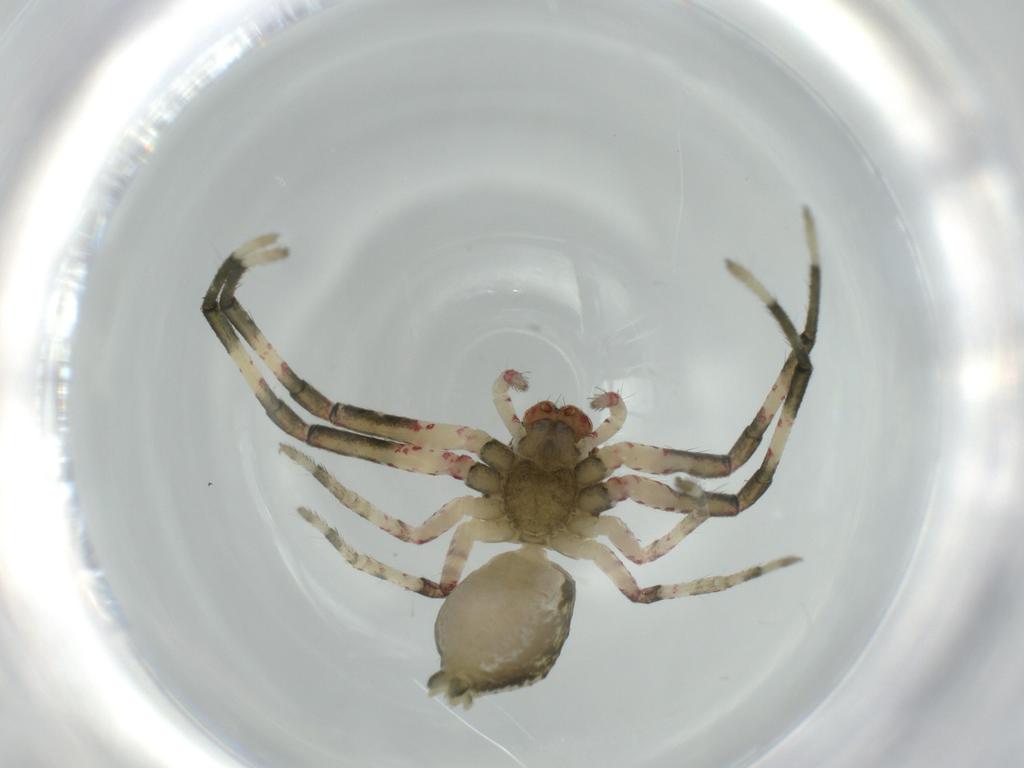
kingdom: Animalia
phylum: Arthropoda
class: Arachnida
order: Araneae
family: Thomisidae
